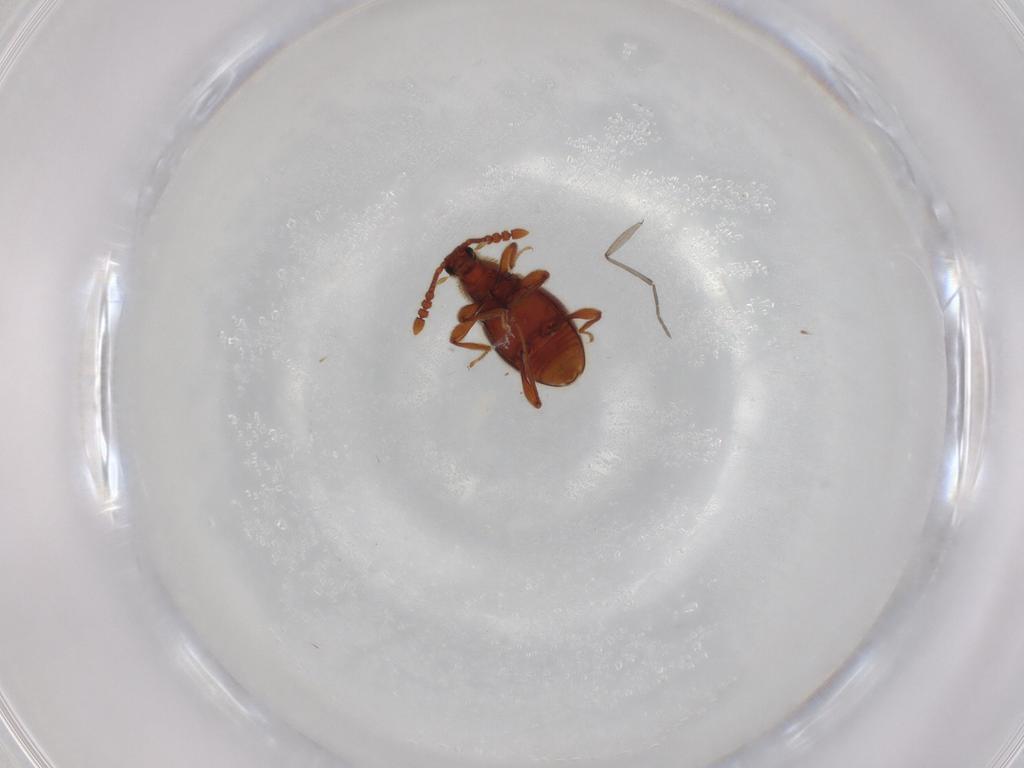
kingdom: Animalia
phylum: Arthropoda
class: Insecta
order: Coleoptera
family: Staphylinidae
